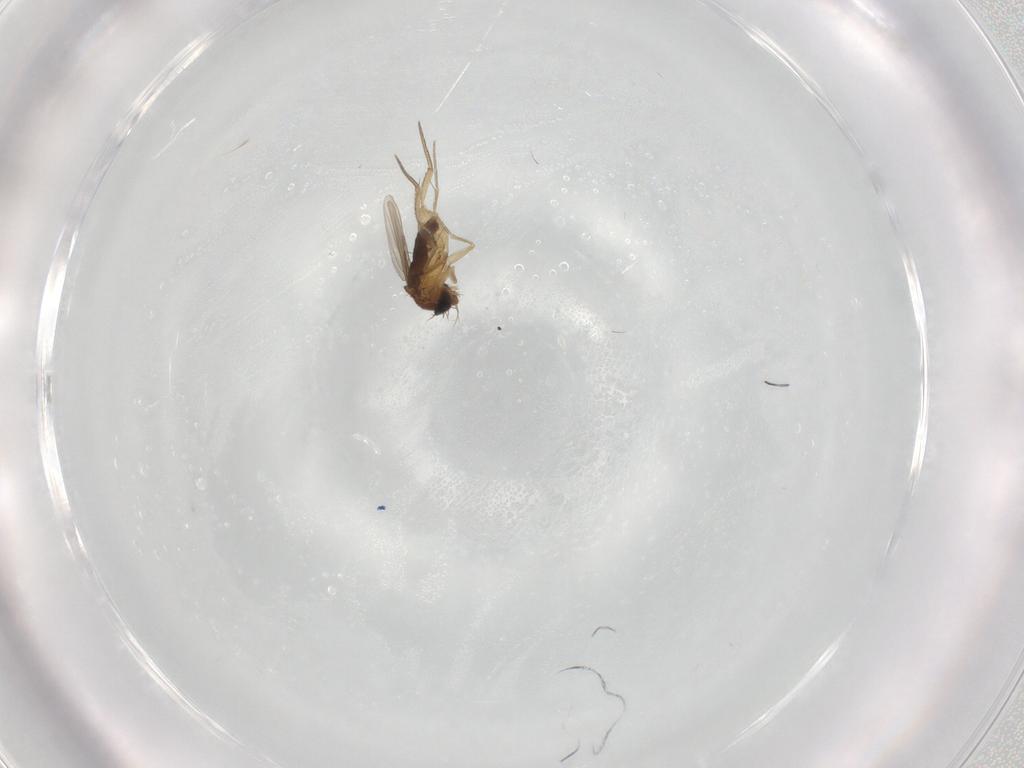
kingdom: Animalia
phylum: Arthropoda
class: Insecta
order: Diptera
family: Phoridae
